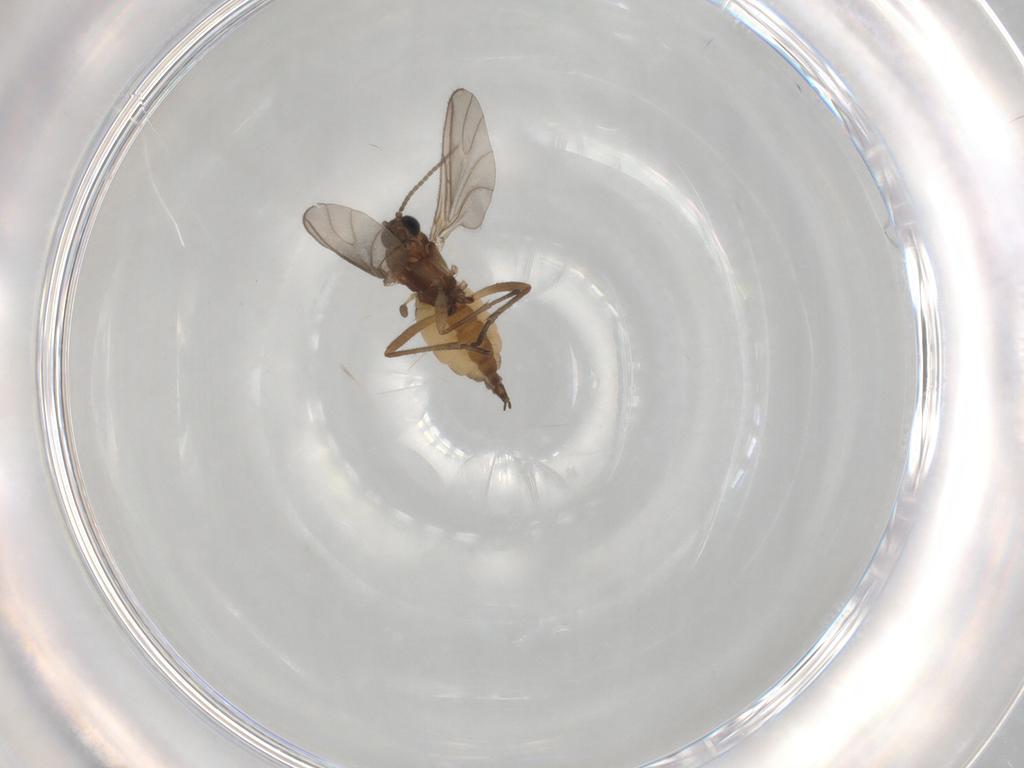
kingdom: Animalia
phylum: Arthropoda
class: Insecta
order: Diptera
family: Sciaridae
